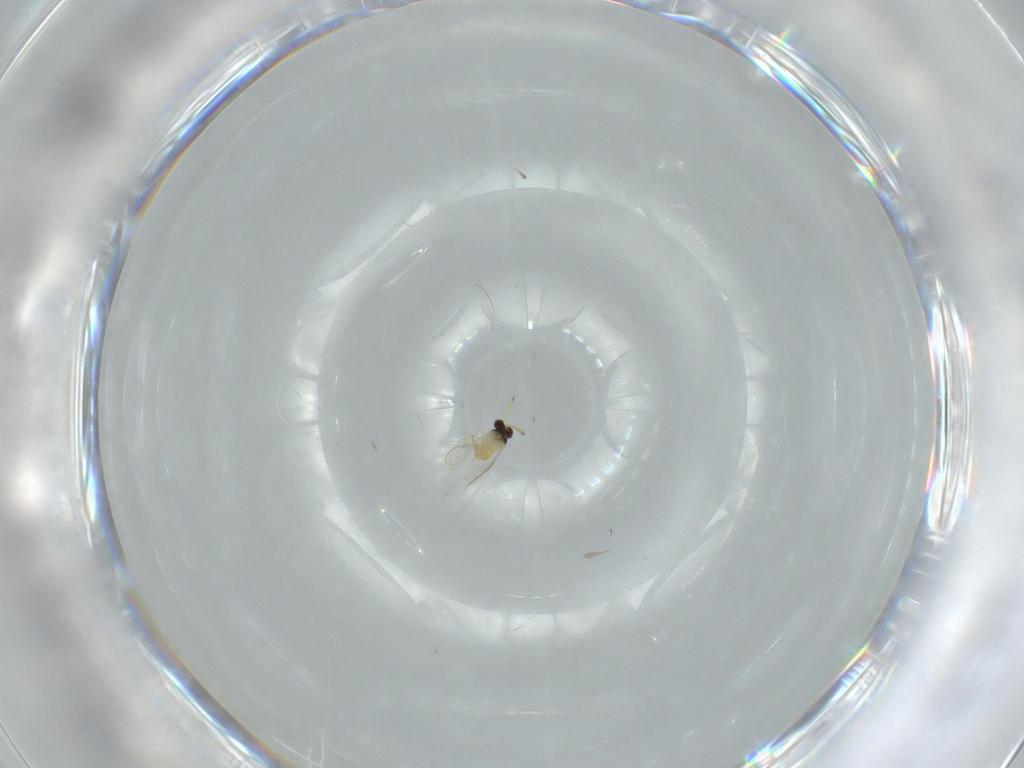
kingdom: Animalia
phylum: Arthropoda
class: Insecta
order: Hymenoptera
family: Aphelinidae
